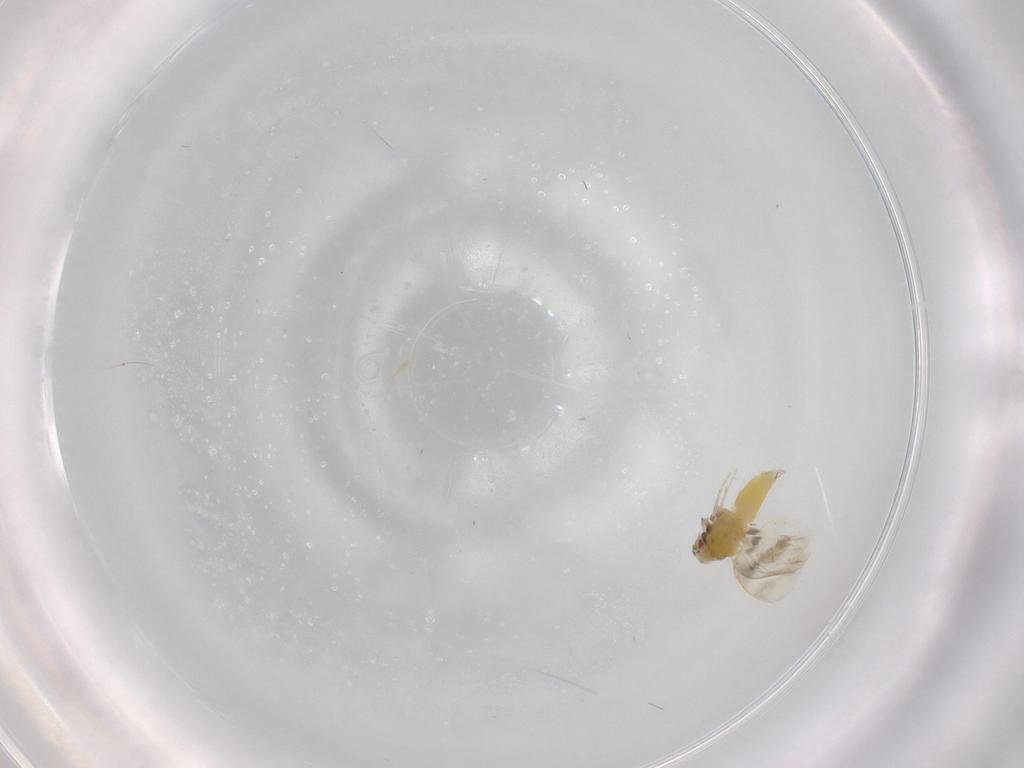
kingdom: Animalia
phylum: Arthropoda
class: Insecta
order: Hemiptera
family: Aleyrodidae
